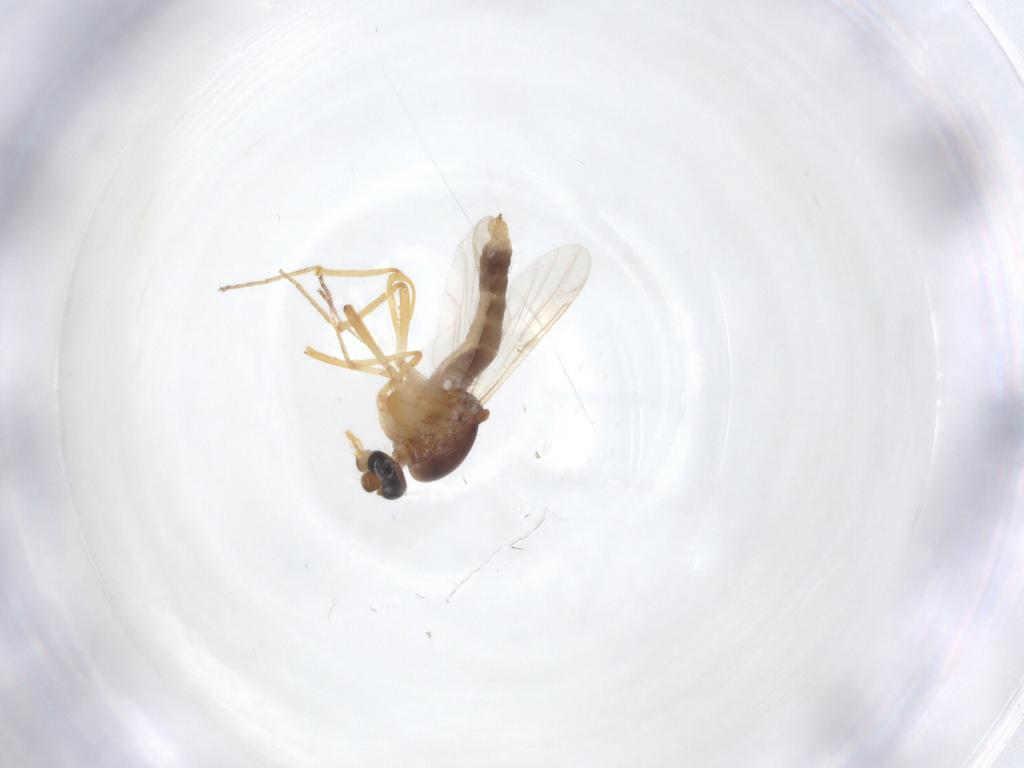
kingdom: Animalia
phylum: Arthropoda
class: Insecta
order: Diptera
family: Ceratopogonidae
